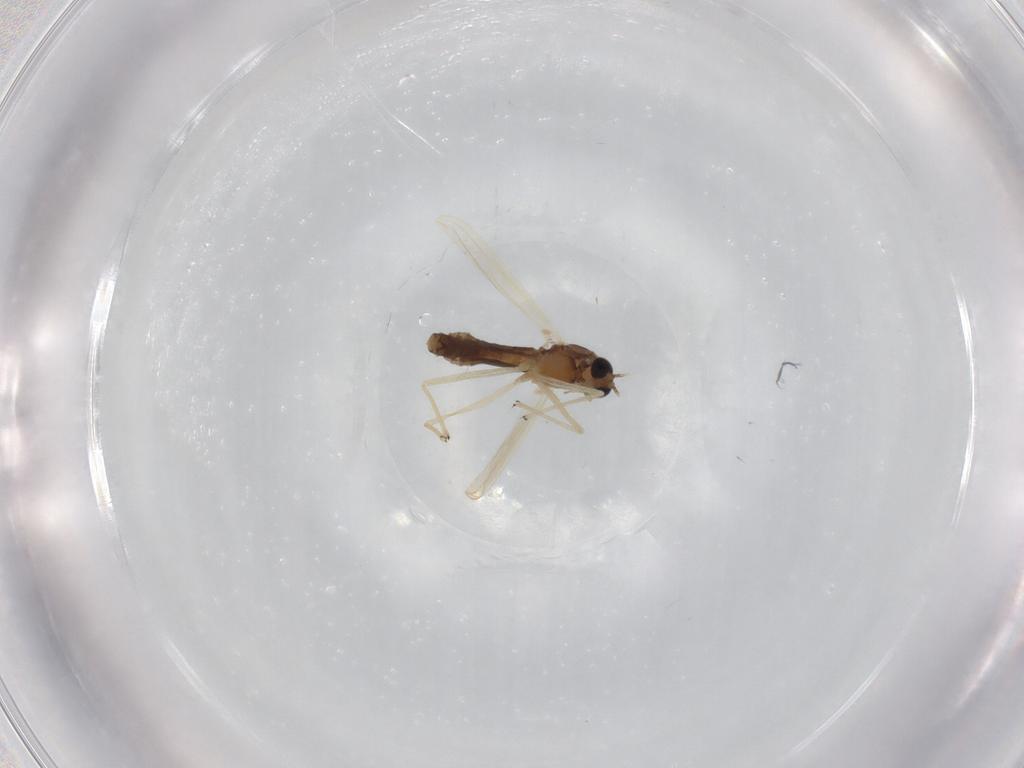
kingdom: Animalia
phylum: Arthropoda
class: Insecta
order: Diptera
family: Chironomidae
